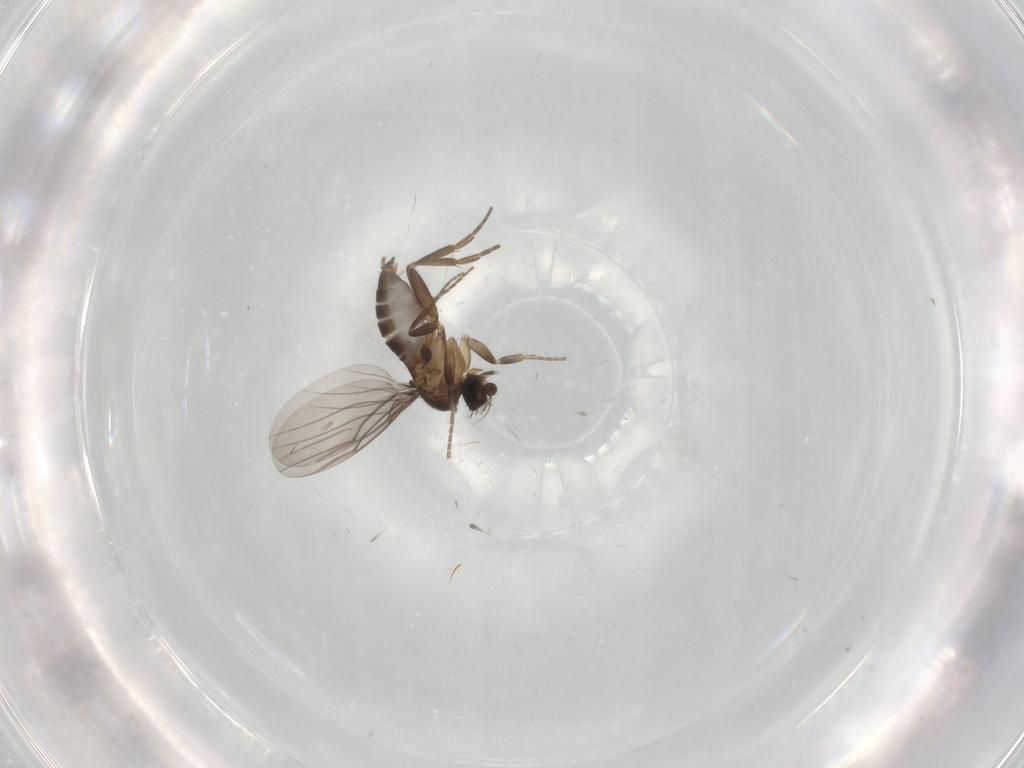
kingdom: Animalia
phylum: Arthropoda
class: Insecta
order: Diptera
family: Phoridae
